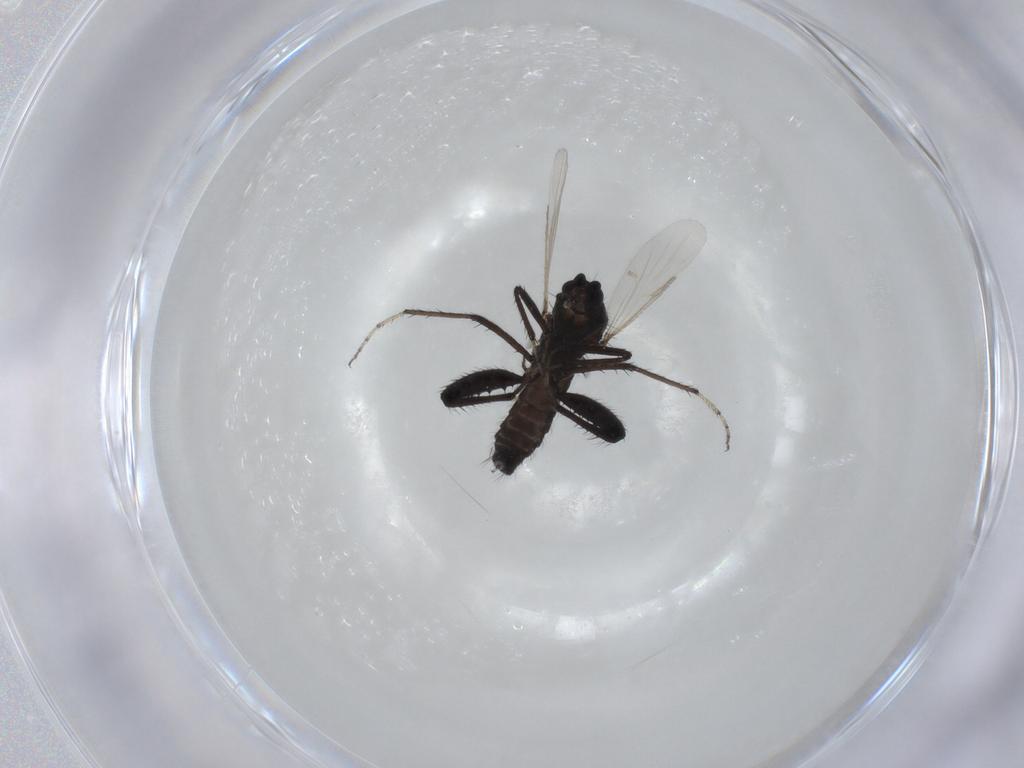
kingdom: Animalia
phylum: Arthropoda
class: Insecta
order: Diptera
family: Ceratopogonidae
